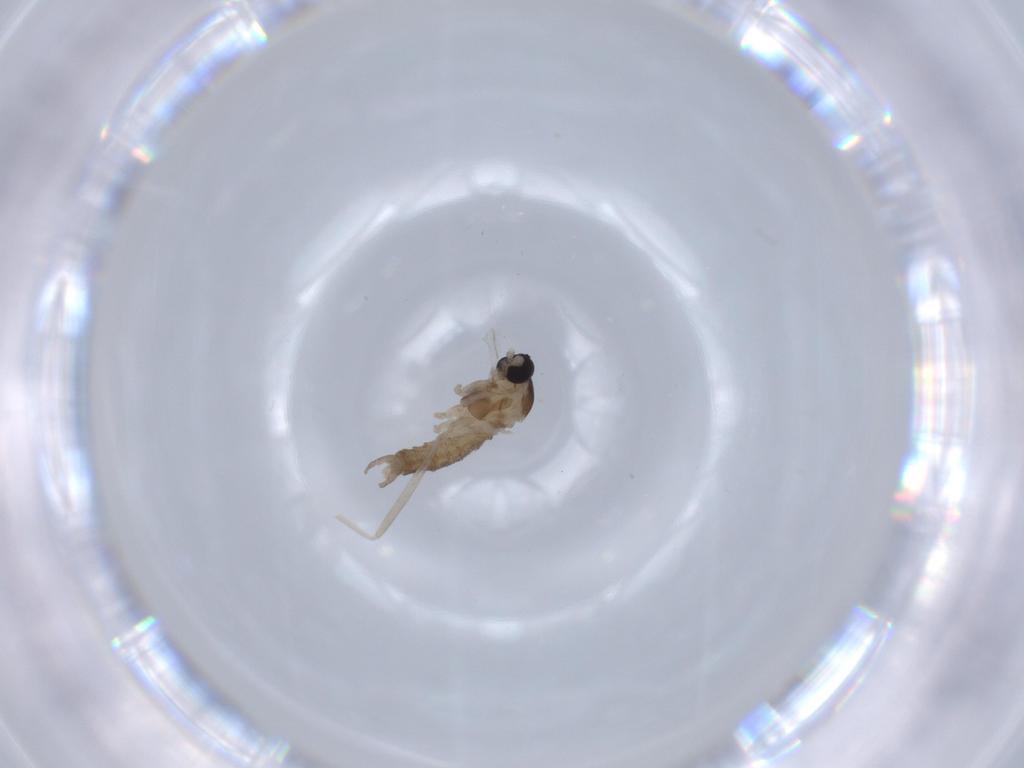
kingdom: Animalia
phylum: Arthropoda
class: Insecta
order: Diptera
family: Cecidomyiidae
